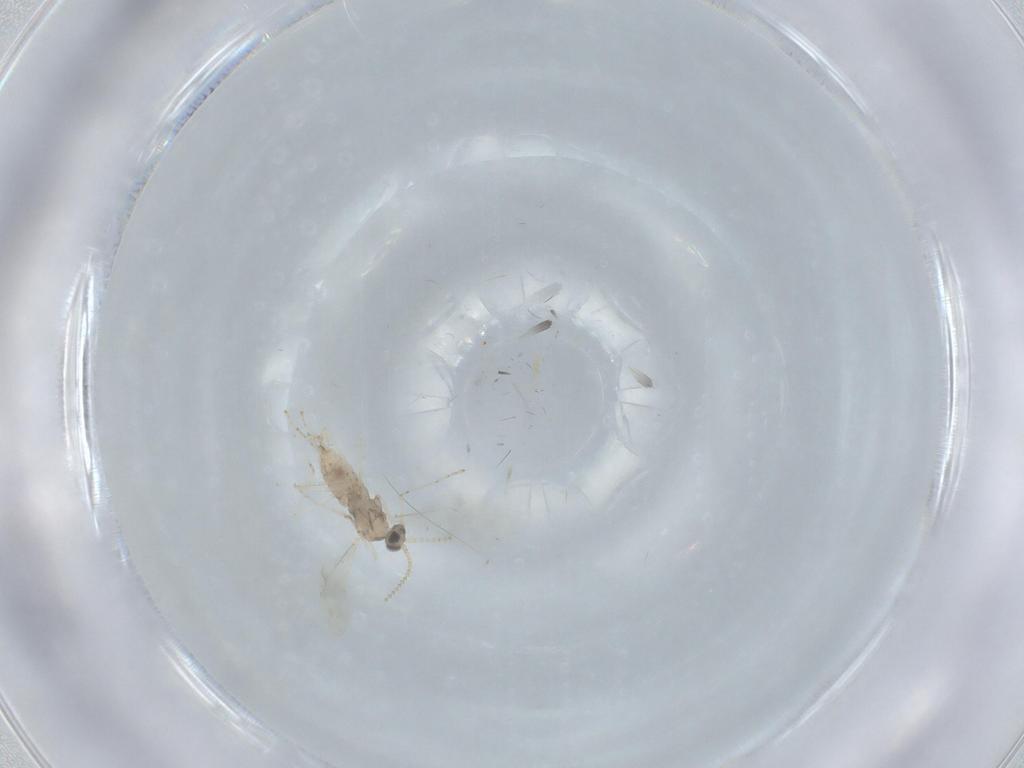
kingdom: Animalia
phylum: Arthropoda
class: Insecta
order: Diptera
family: Cecidomyiidae
